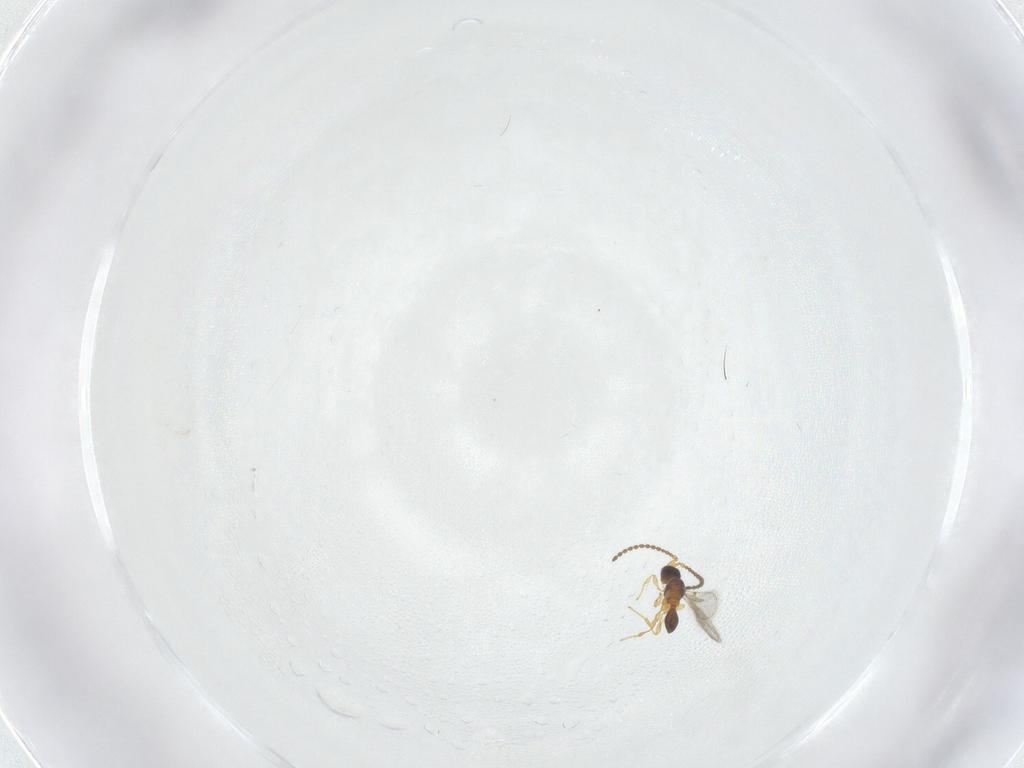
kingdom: Animalia
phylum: Arthropoda
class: Insecta
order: Hymenoptera
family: Diapriidae
